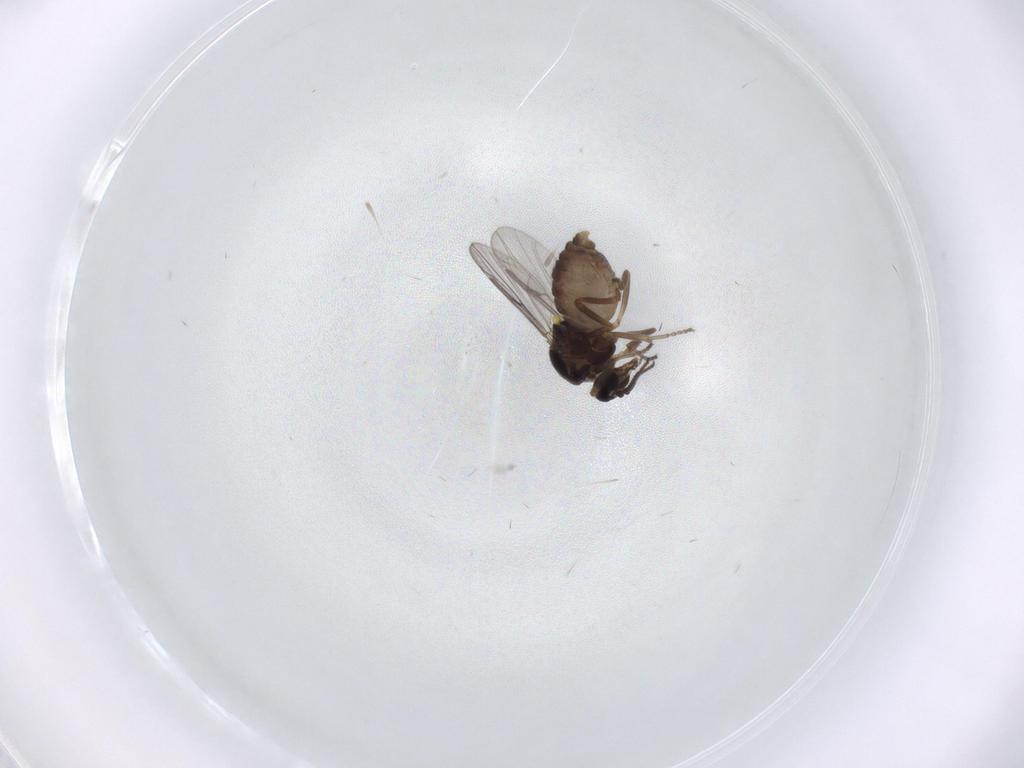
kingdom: Animalia
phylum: Arthropoda
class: Insecta
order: Diptera
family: Ceratopogonidae
